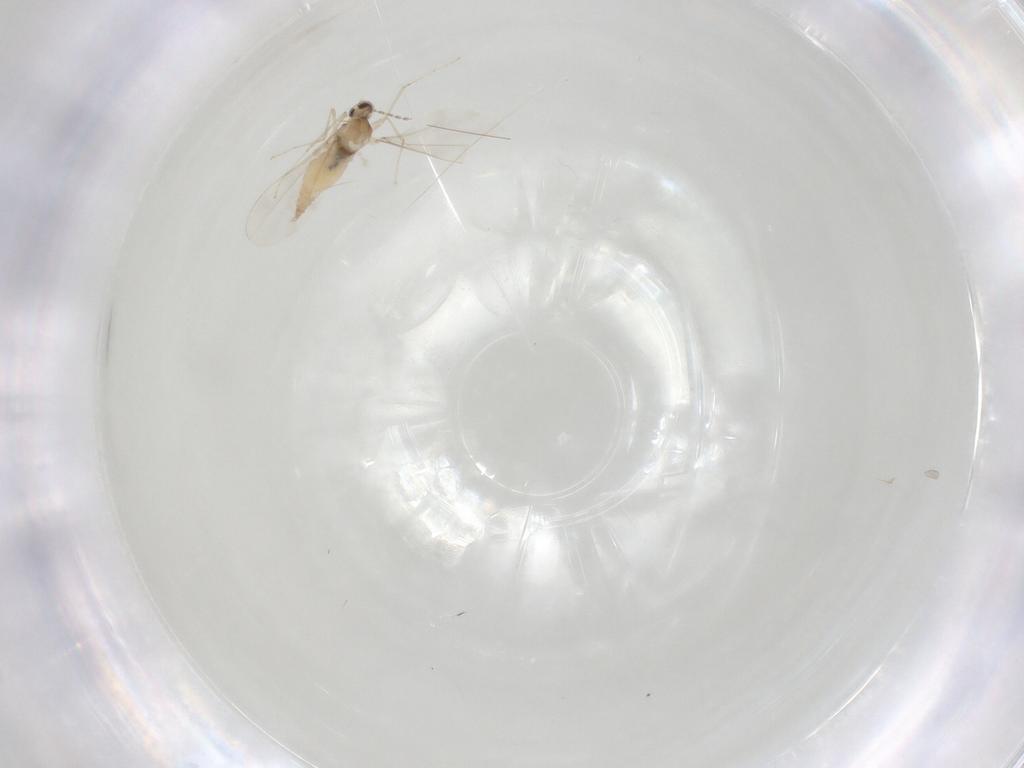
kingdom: Animalia
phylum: Arthropoda
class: Insecta
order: Diptera
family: Cecidomyiidae
